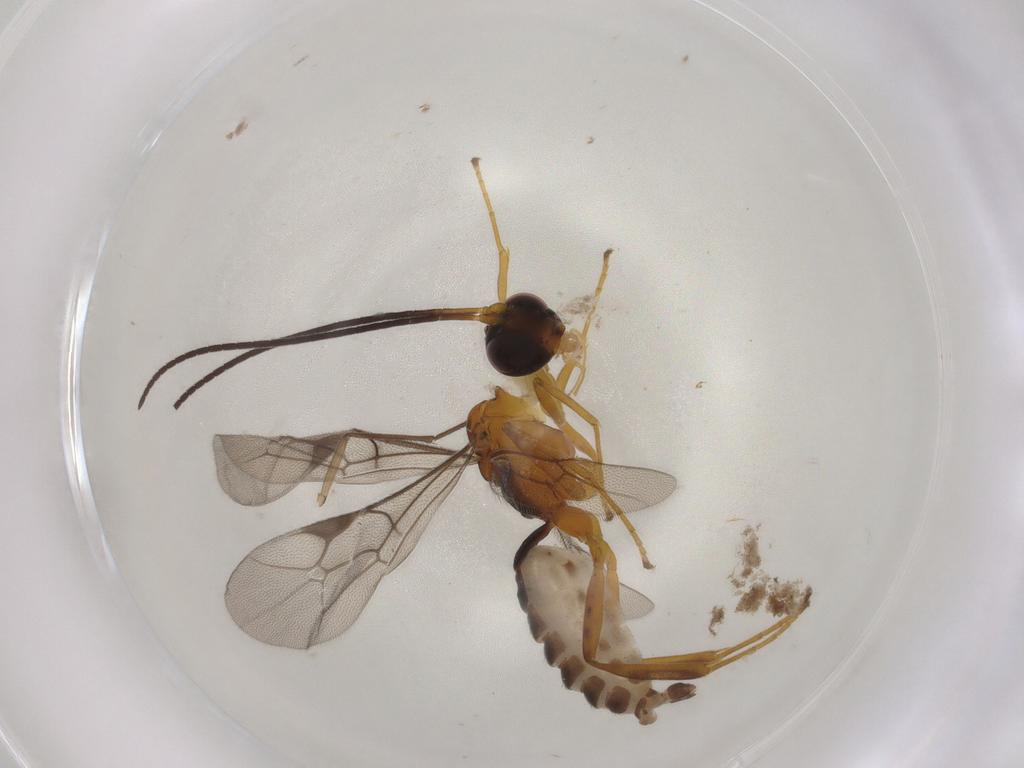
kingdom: Animalia
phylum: Arthropoda
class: Insecta
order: Hymenoptera
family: Ichneumonidae
